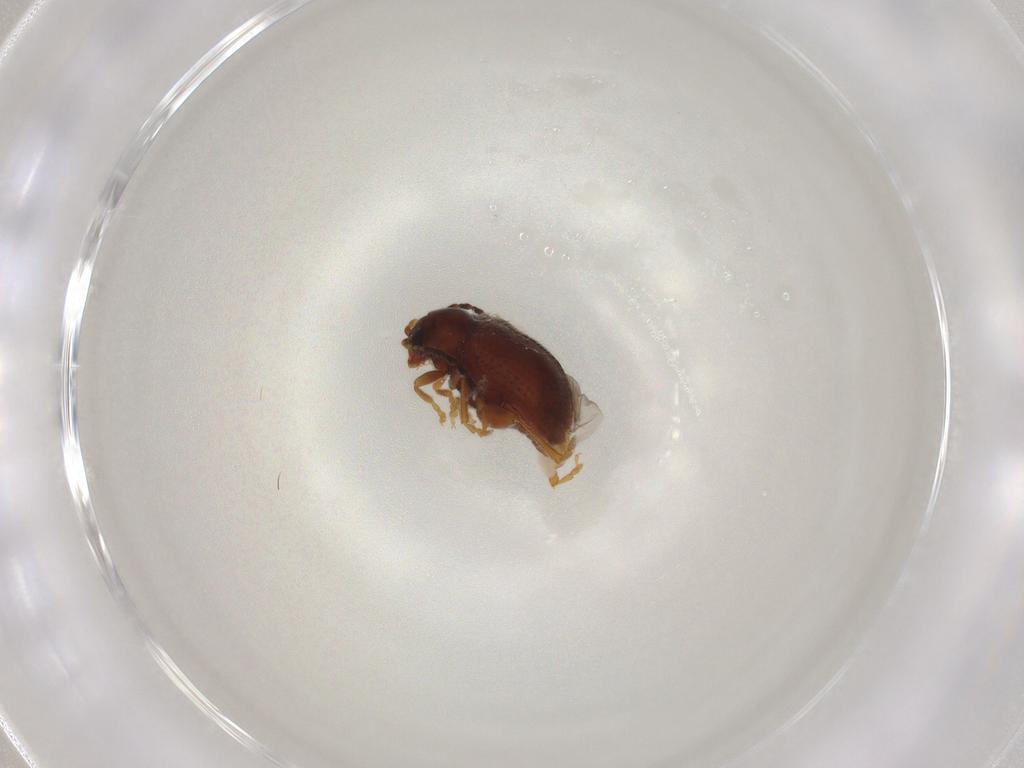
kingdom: Animalia
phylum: Arthropoda
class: Insecta
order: Coleoptera
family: Chrysomelidae
